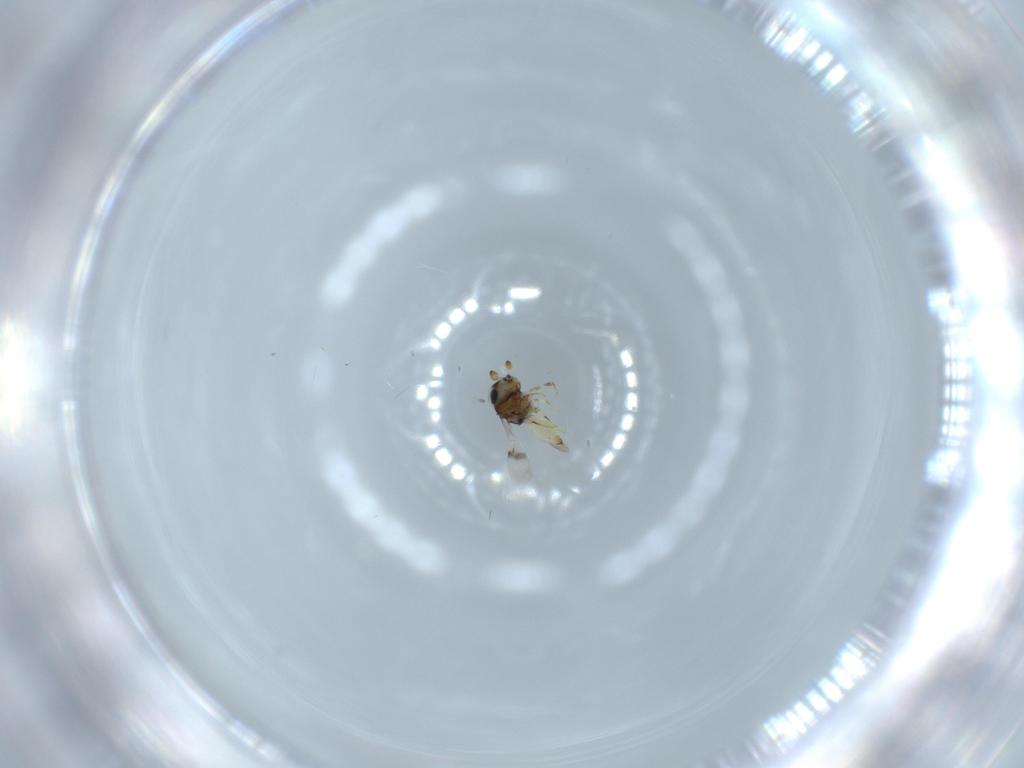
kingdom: Animalia
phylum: Arthropoda
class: Insecta
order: Hymenoptera
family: Scelionidae
